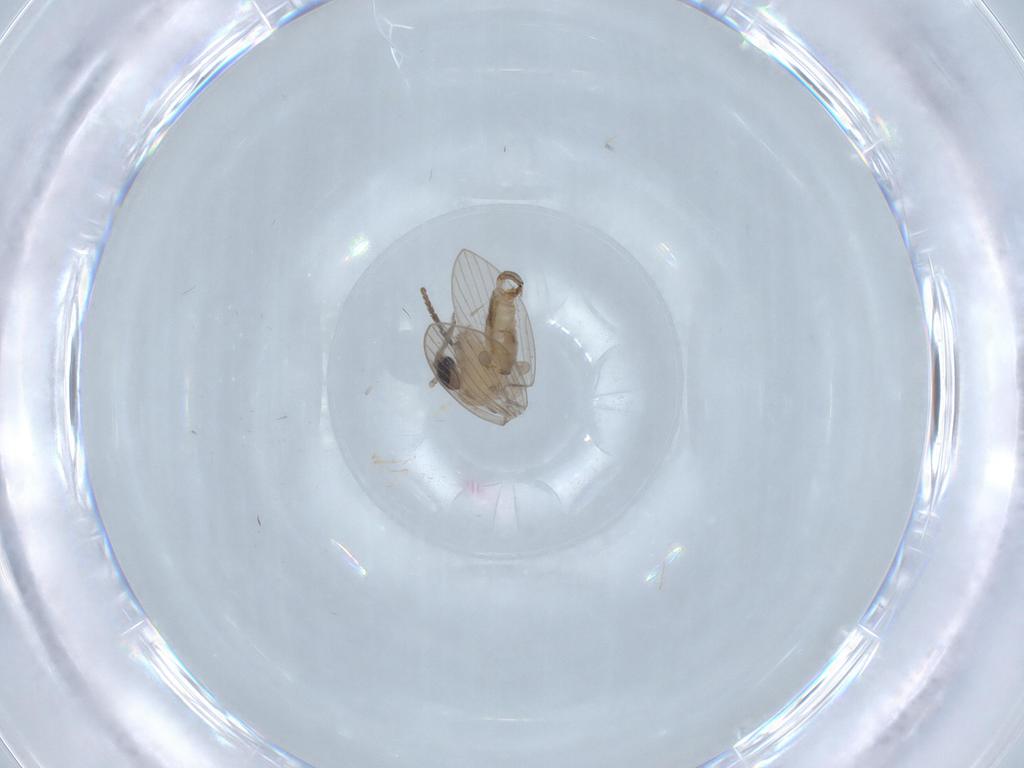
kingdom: Animalia
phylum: Arthropoda
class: Insecta
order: Diptera
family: Psychodidae
